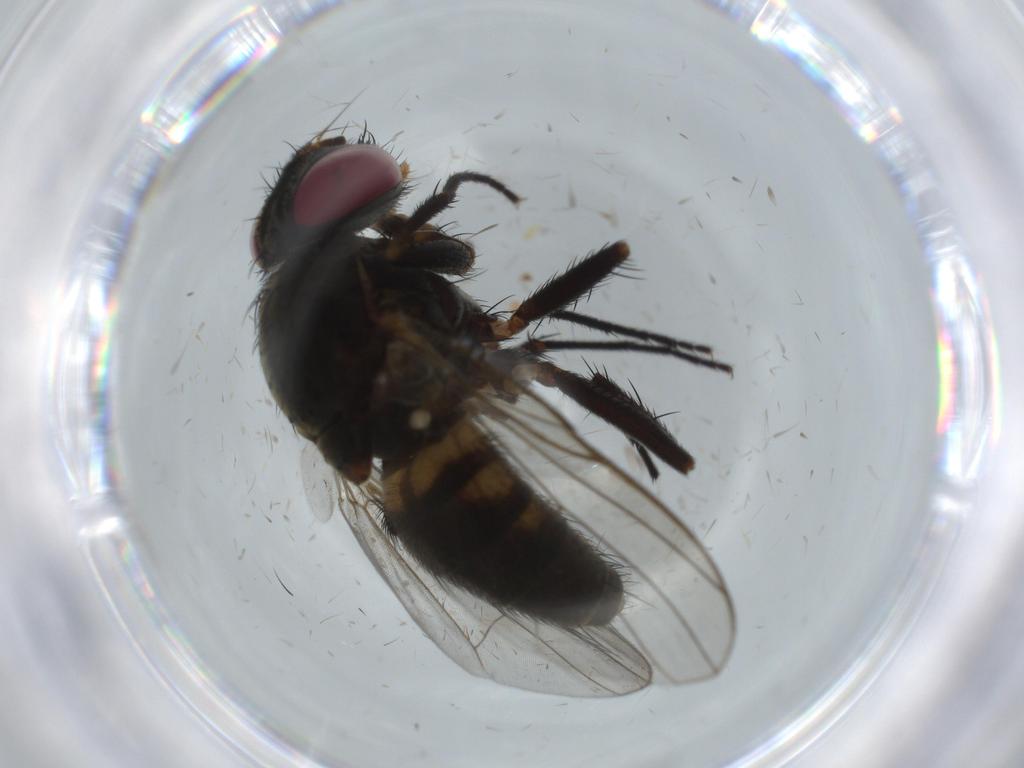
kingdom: Animalia
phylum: Arthropoda
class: Insecta
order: Diptera
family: Fannia
